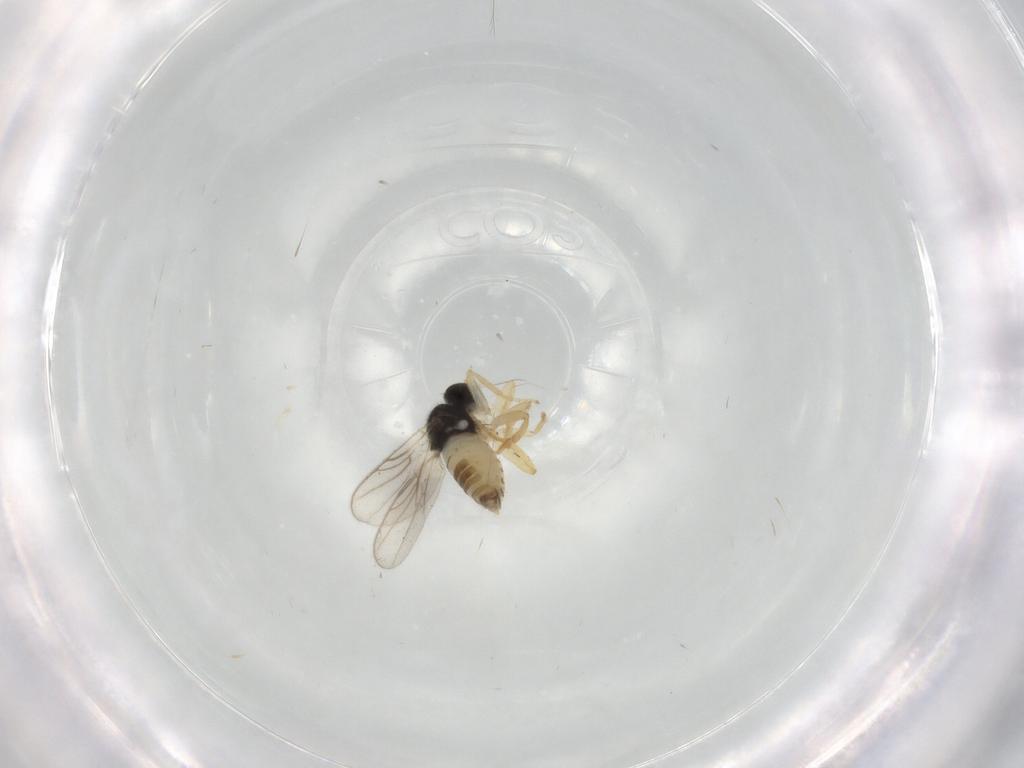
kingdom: Animalia
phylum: Arthropoda
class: Insecta
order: Diptera
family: Hybotidae
